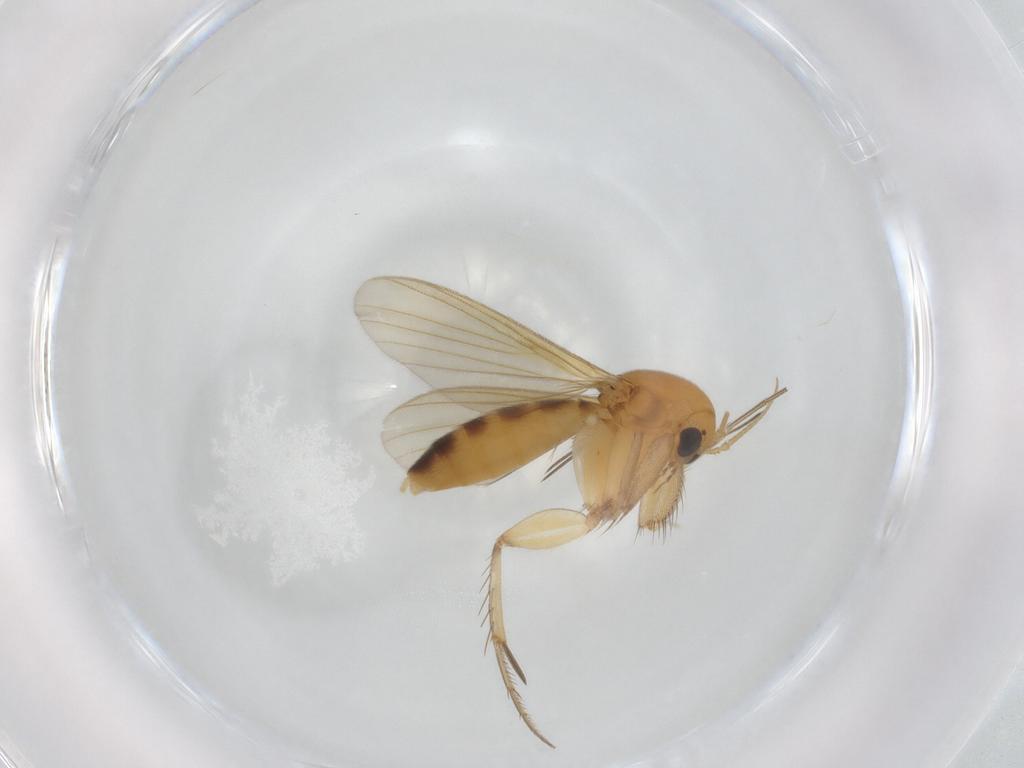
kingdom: Animalia
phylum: Arthropoda
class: Insecta
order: Diptera
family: Mycetophilidae
